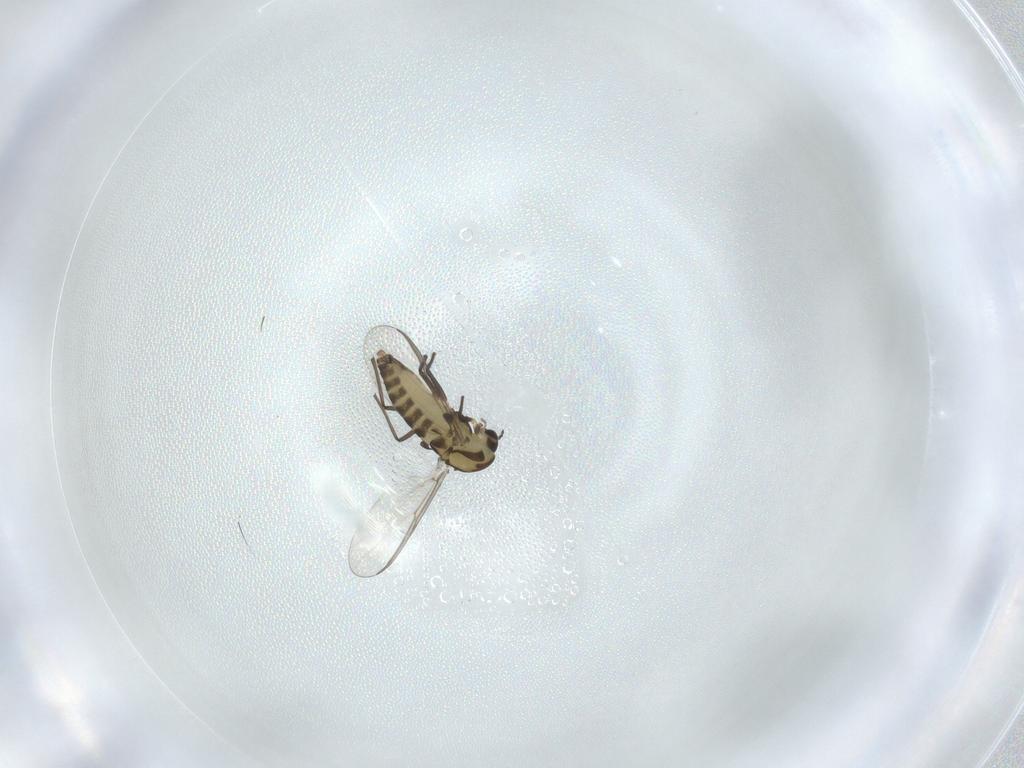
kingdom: Animalia
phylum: Arthropoda
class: Insecta
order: Diptera
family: Chironomidae
